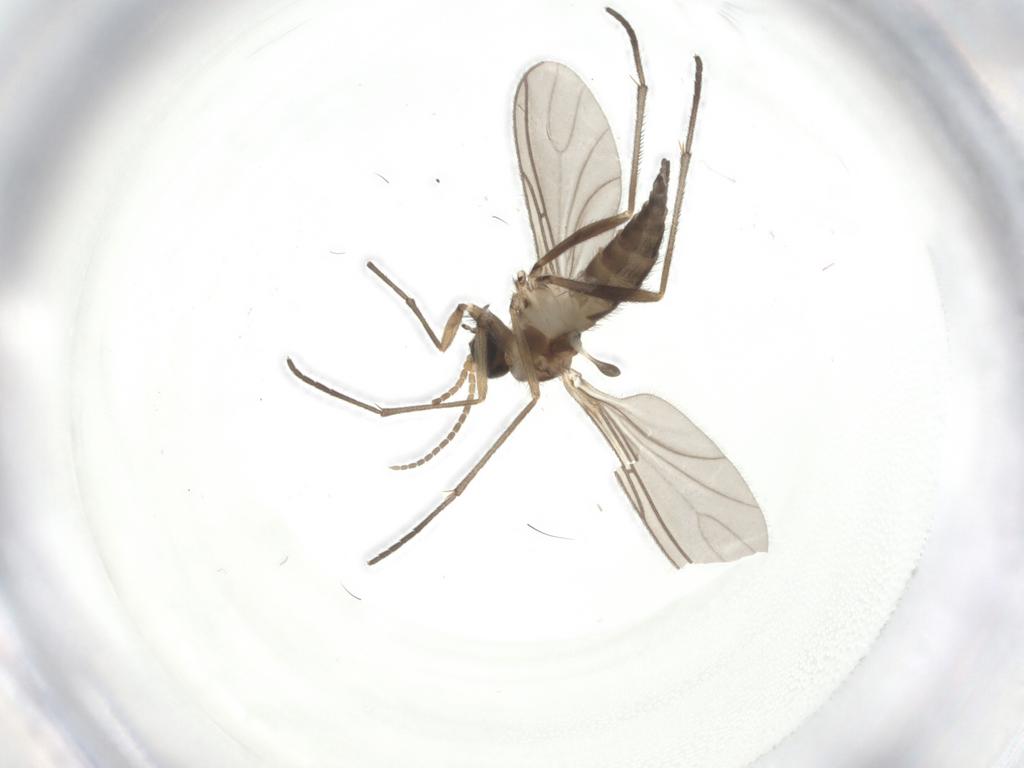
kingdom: Animalia
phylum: Arthropoda
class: Insecta
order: Diptera
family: Sciaridae
